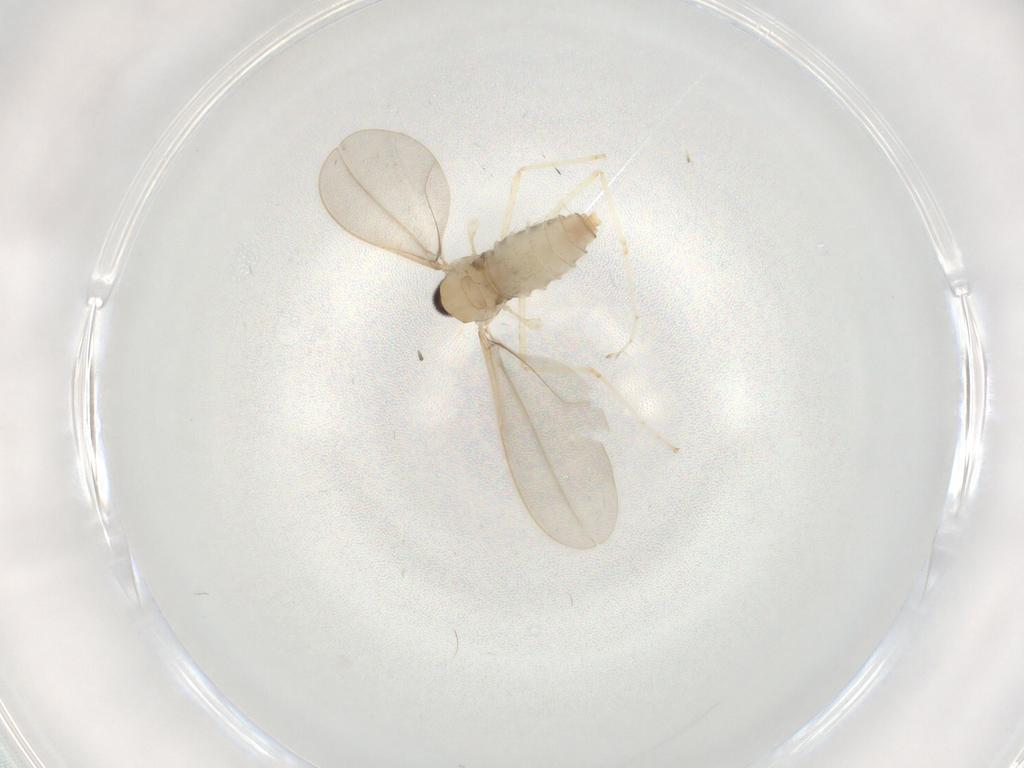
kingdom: Animalia
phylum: Arthropoda
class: Insecta
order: Diptera
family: Cecidomyiidae
